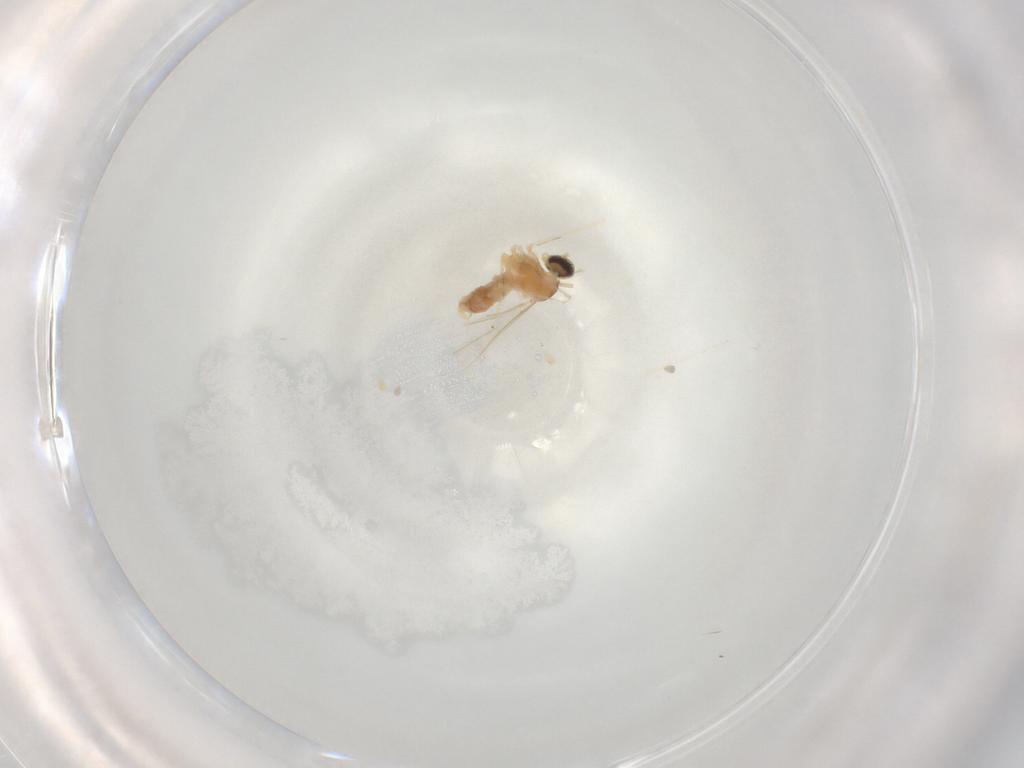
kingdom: Animalia
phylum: Arthropoda
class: Insecta
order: Diptera
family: Cecidomyiidae
